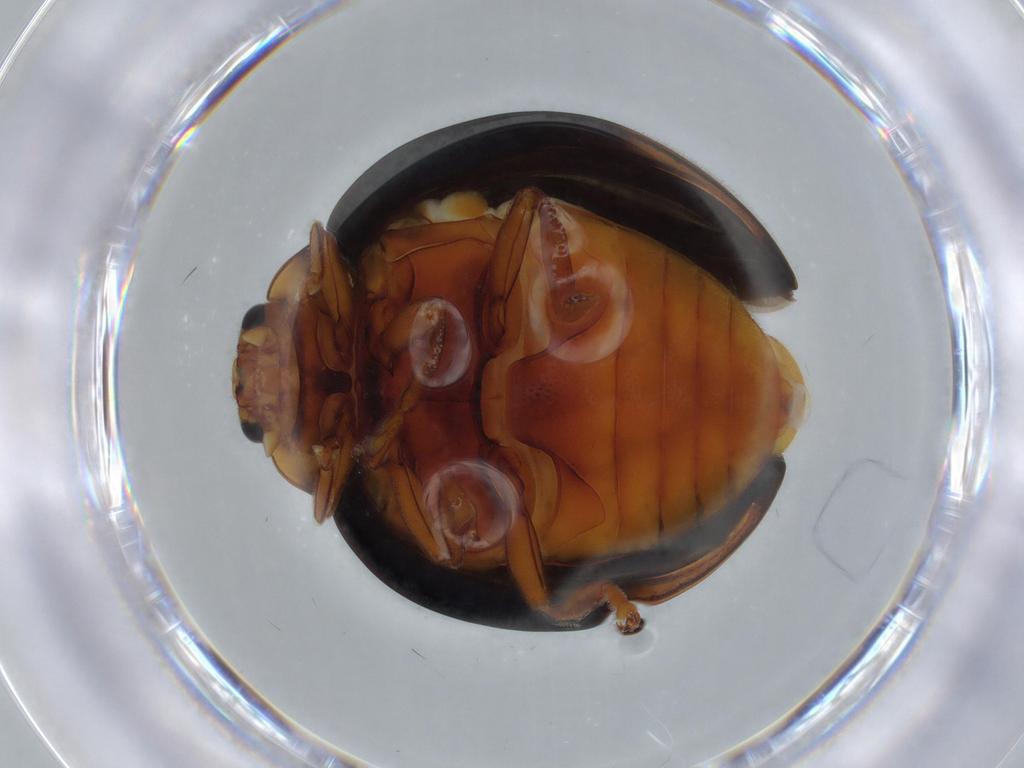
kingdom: Animalia
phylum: Arthropoda
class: Insecta
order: Coleoptera
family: Coccinellidae
